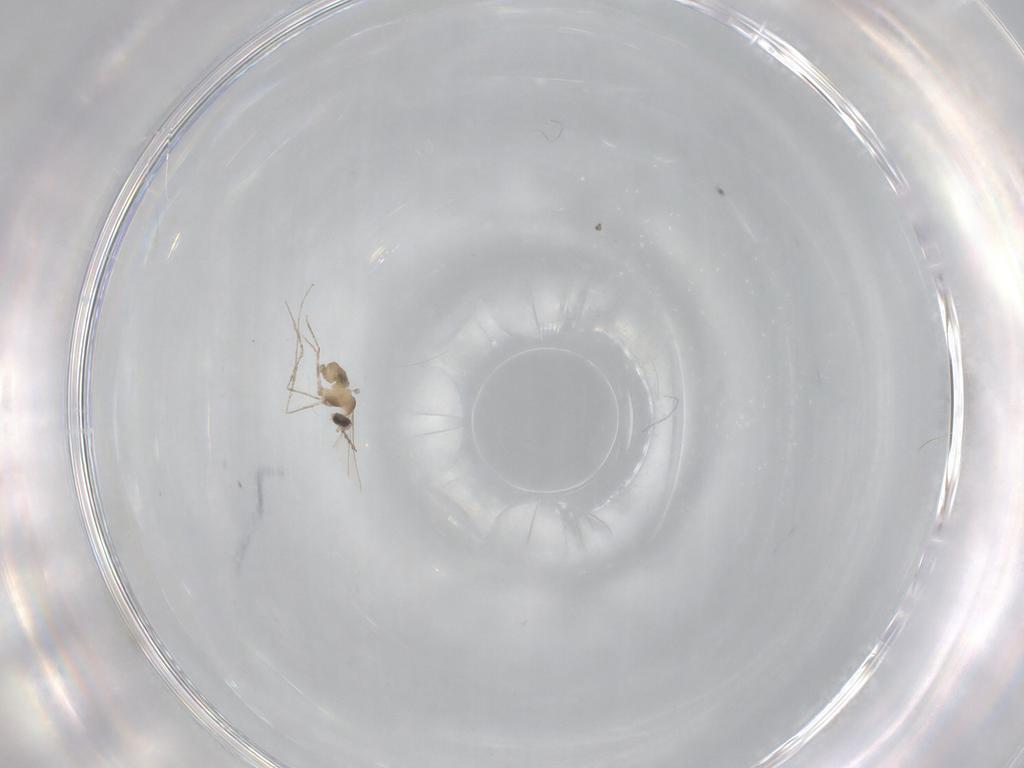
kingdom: Animalia
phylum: Arthropoda
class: Insecta
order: Diptera
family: Cecidomyiidae
